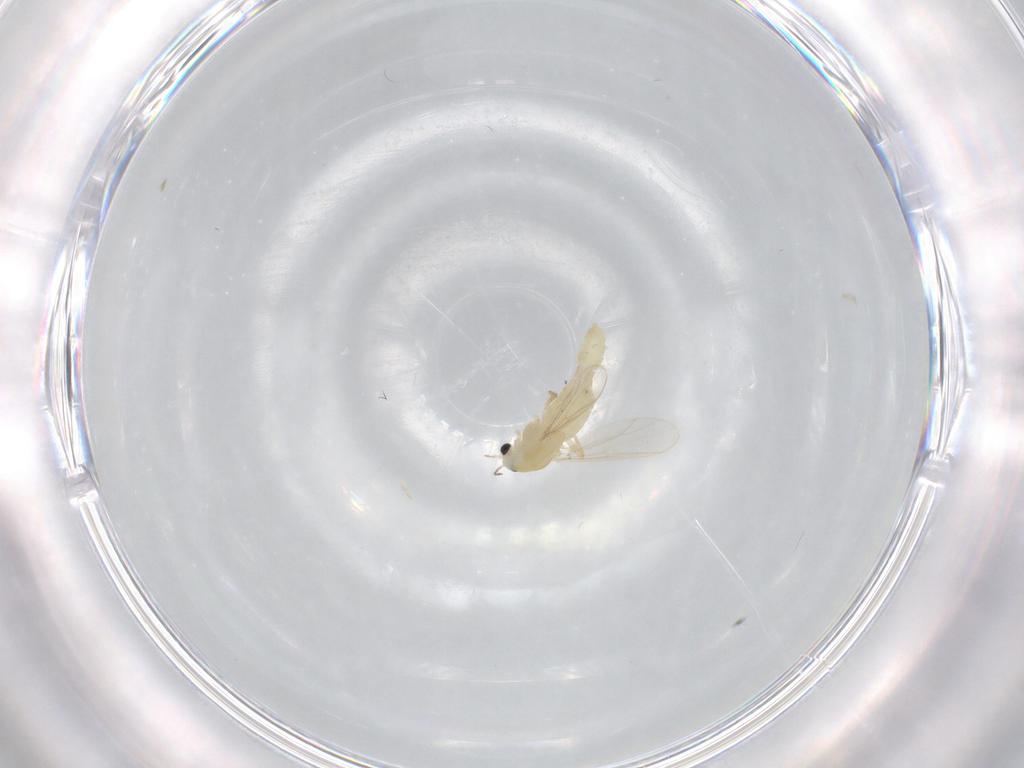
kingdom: Animalia
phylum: Arthropoda
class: Insecta
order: Diptera
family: Chironomidae
